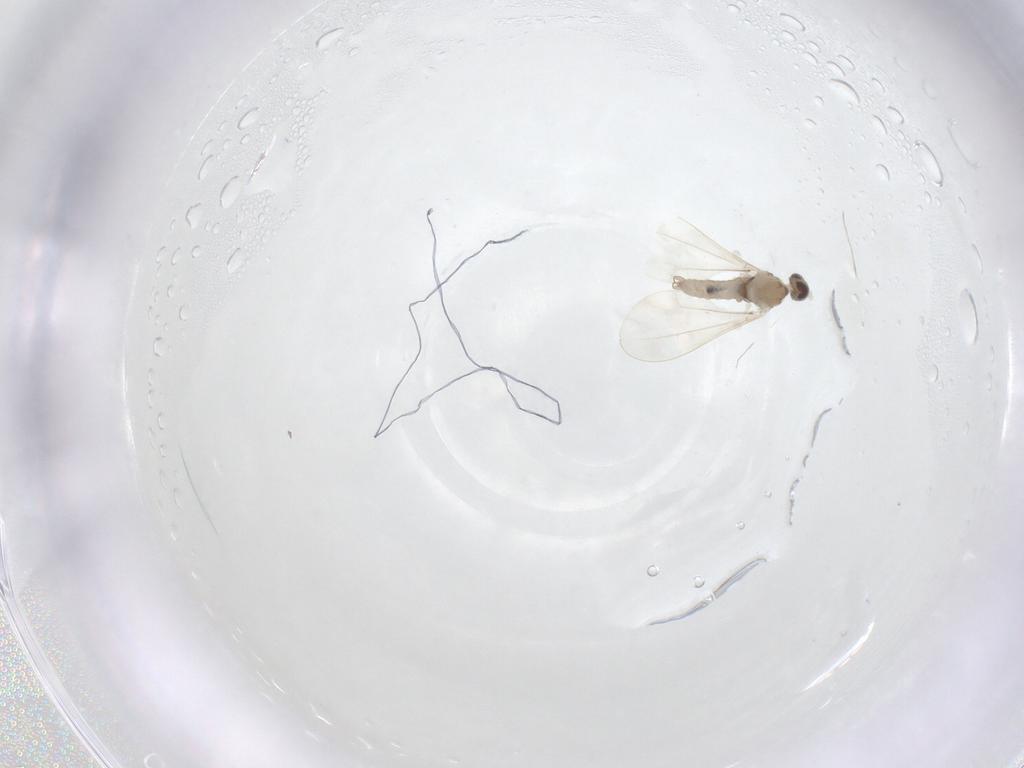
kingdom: Animalia
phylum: Arthropoda
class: Insecta
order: Diptera
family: Cecidomyiidae
